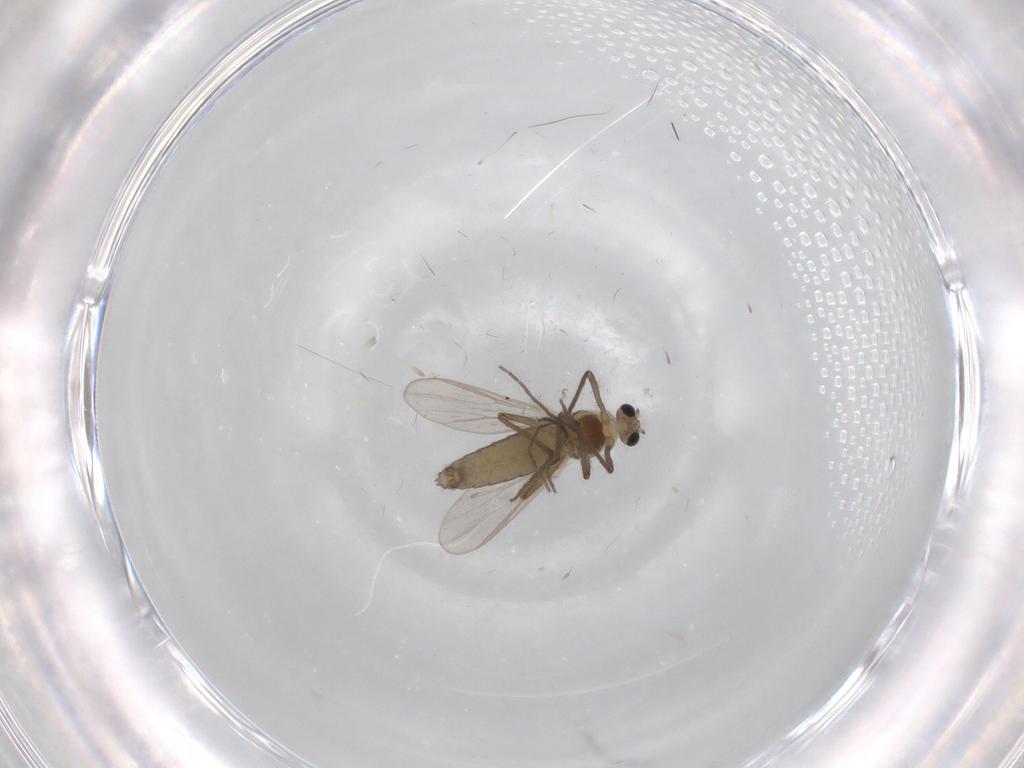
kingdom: Animalia
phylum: Arthropoda
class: Insecta
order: Diptera
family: Chironomidae
